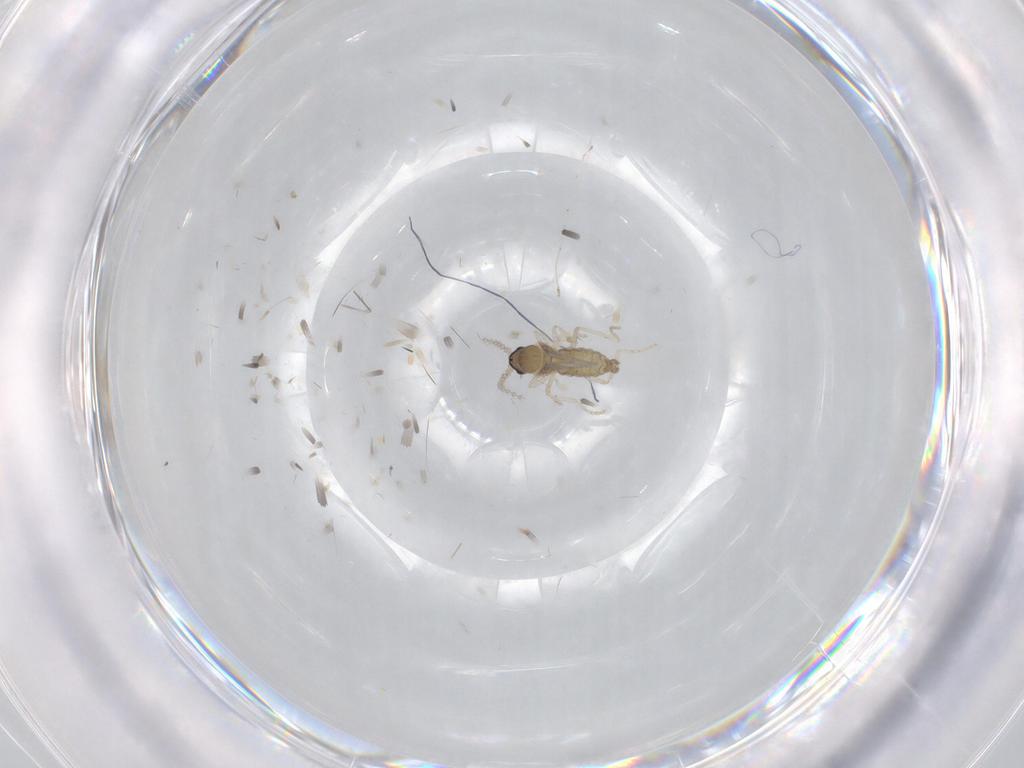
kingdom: Animalia
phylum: Arthropoda
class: Insecta
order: Diptera
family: Cecidomyiidae
